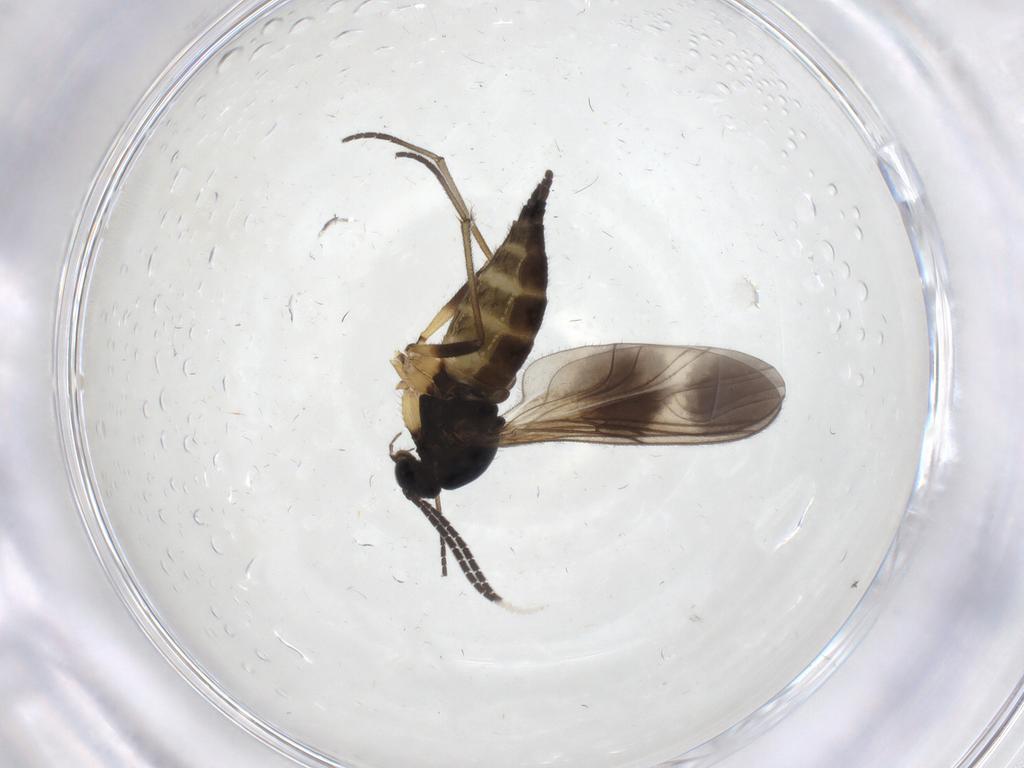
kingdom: Animalia
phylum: Arthropoda
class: Insecta
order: Diptera
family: Sciaridae
